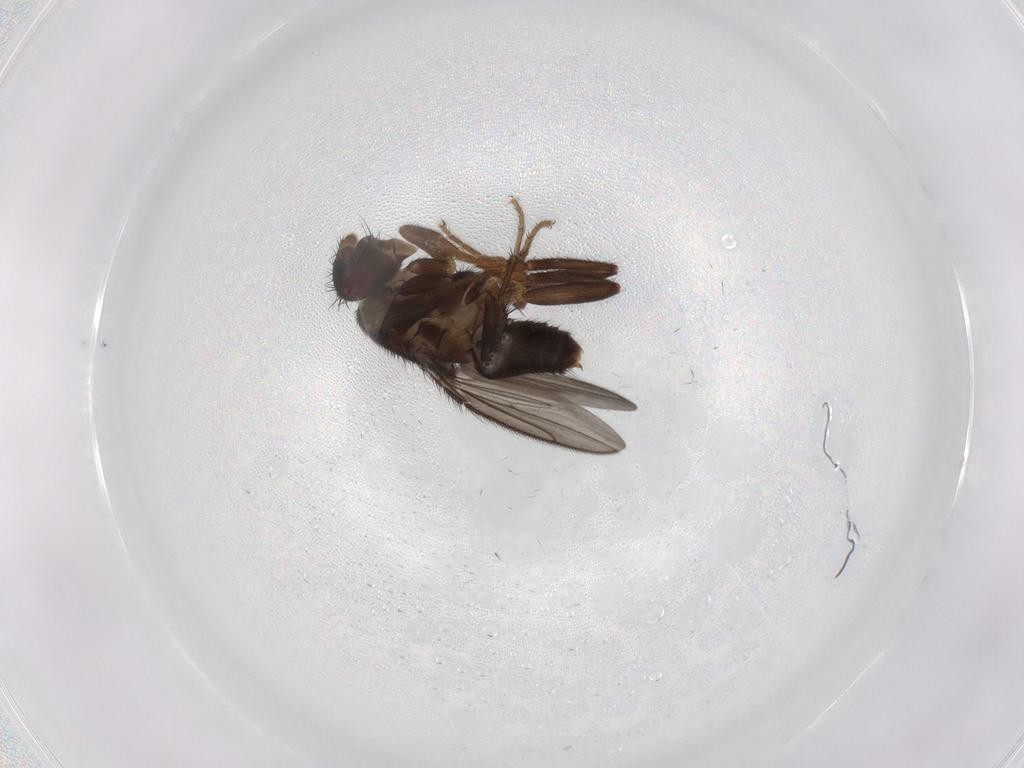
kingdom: Animalia
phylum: Arthropoda
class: Insecta
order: Diptera
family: Sphaeroceridae
